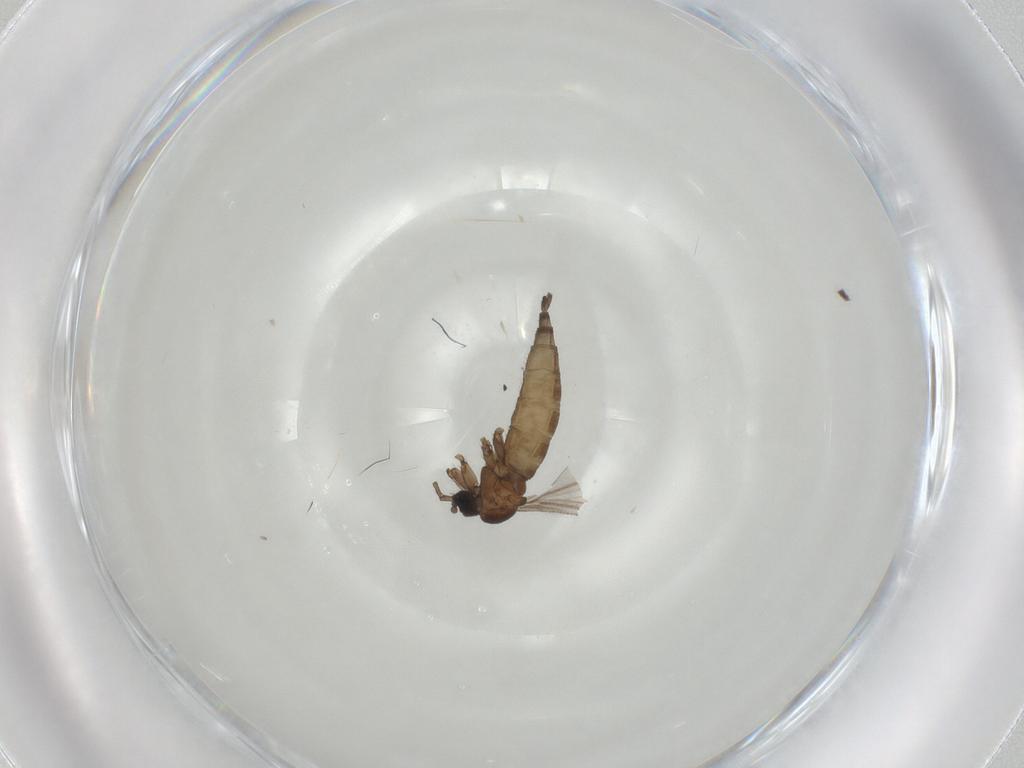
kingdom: Animalia
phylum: Arthropoda
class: Insecta
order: Diptera
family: Sciaridae
